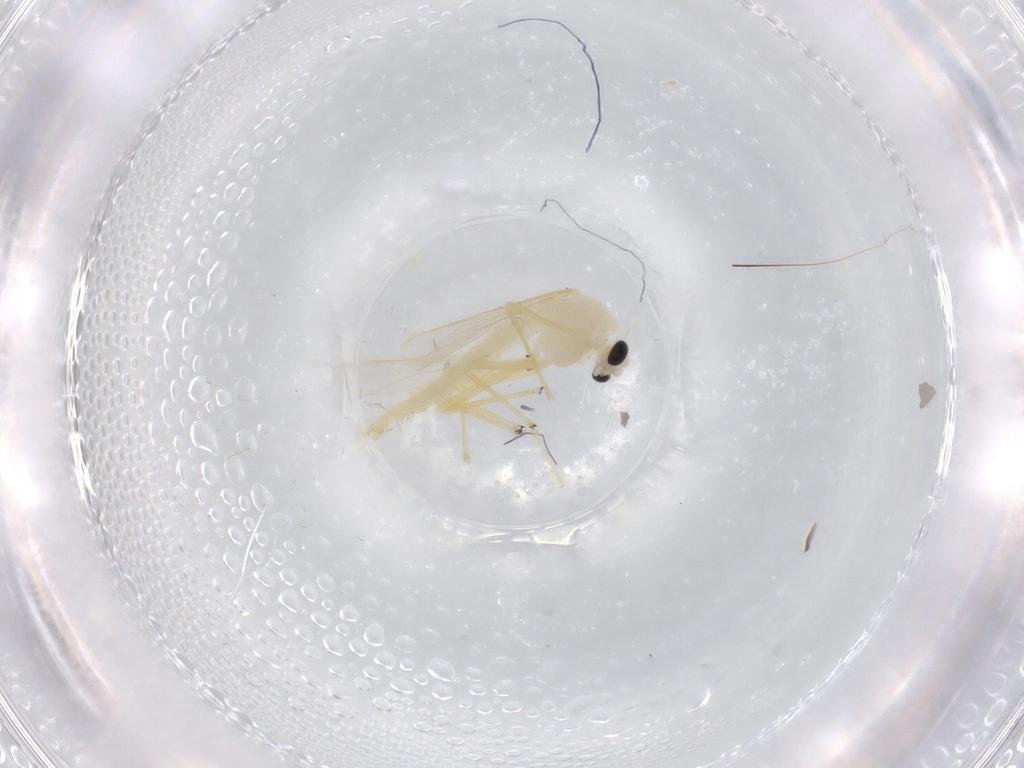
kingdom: Animalia
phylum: Arthropoda
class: Insecta
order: Diptera
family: Chironomidae
